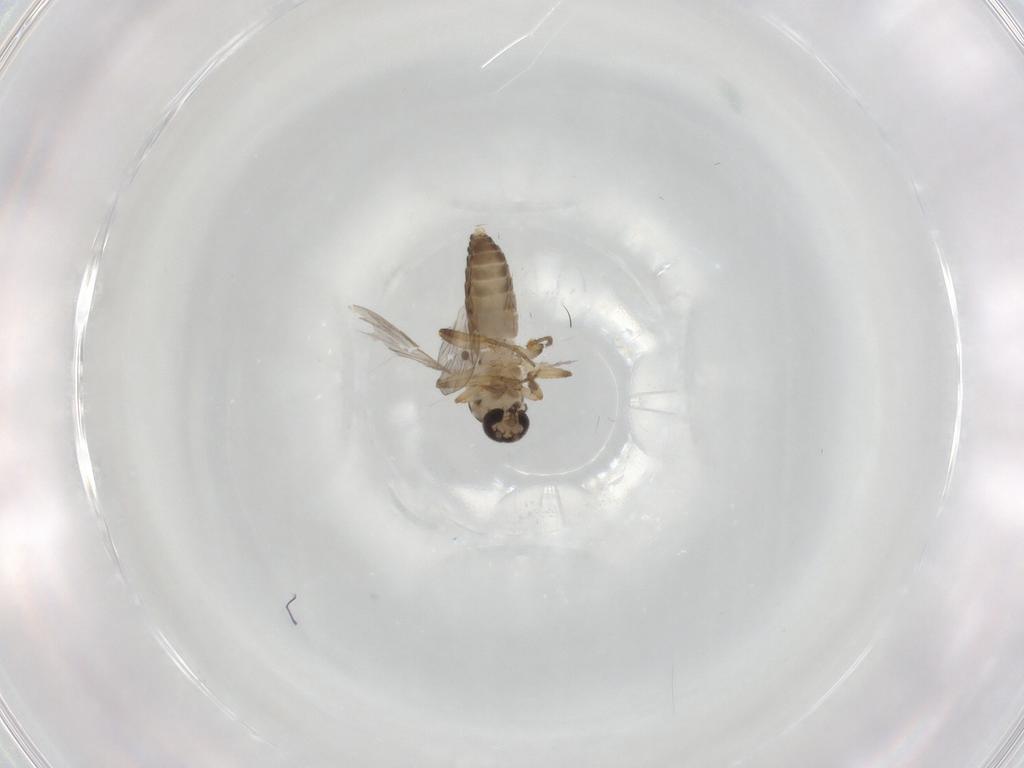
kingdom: Animalia
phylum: Arthropoda
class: Insecta
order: Diptera
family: Ceratopogonidae
